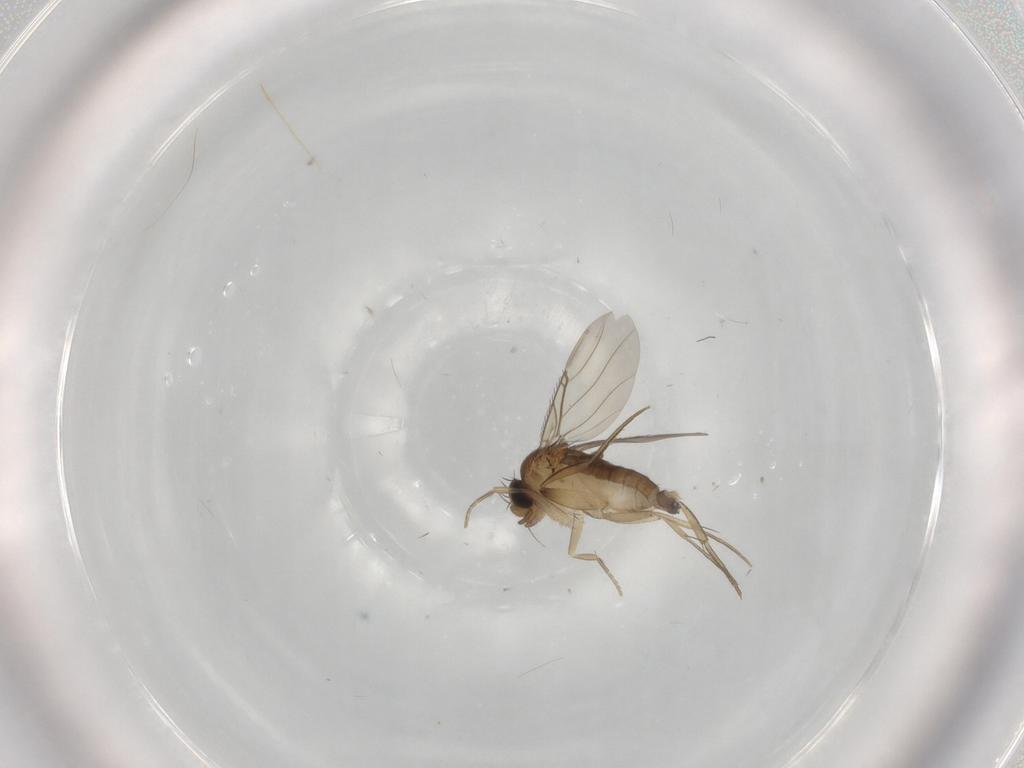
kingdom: Animalia
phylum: Arthropoda
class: Insecta
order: Diptera
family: Phoridae
